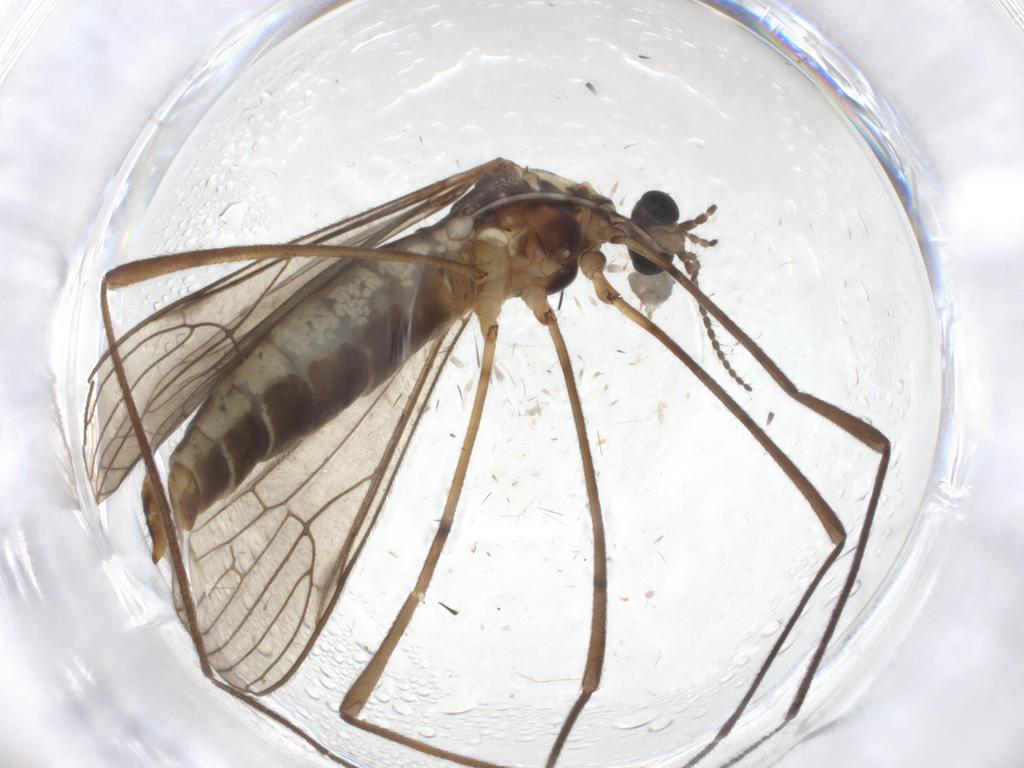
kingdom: Animalia
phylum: Arthropoda
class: Insecta
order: Diptera
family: Phoridae
